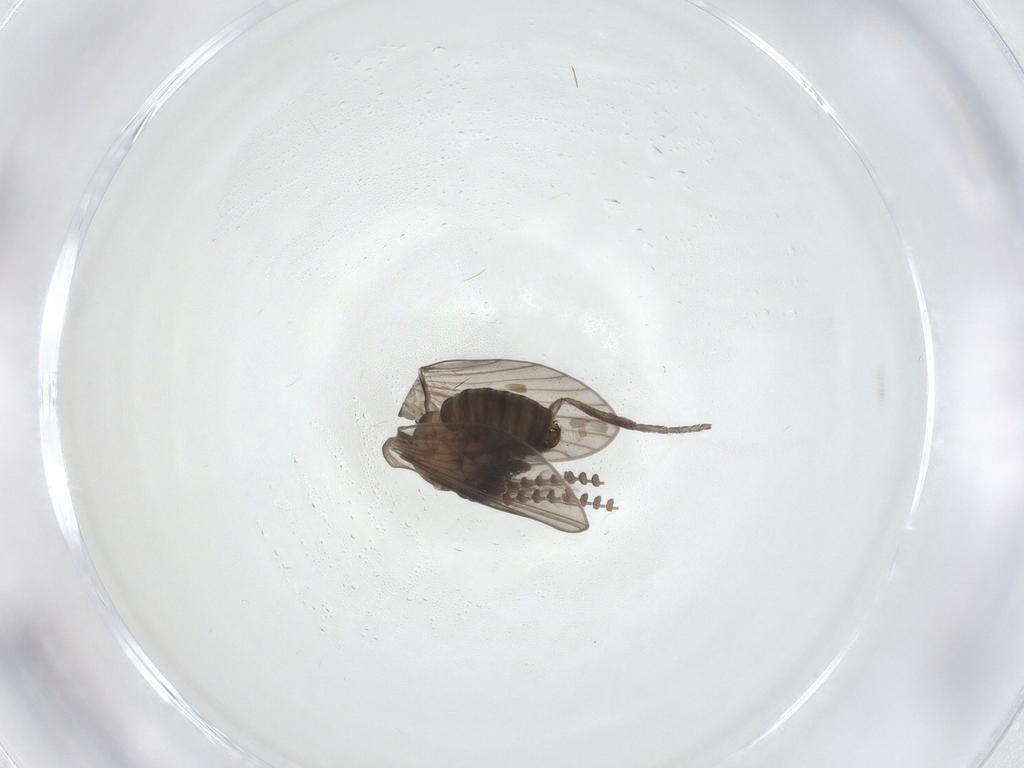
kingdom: Animalia
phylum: Arthropoda
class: Insecta
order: Diptera
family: Psychodidae
